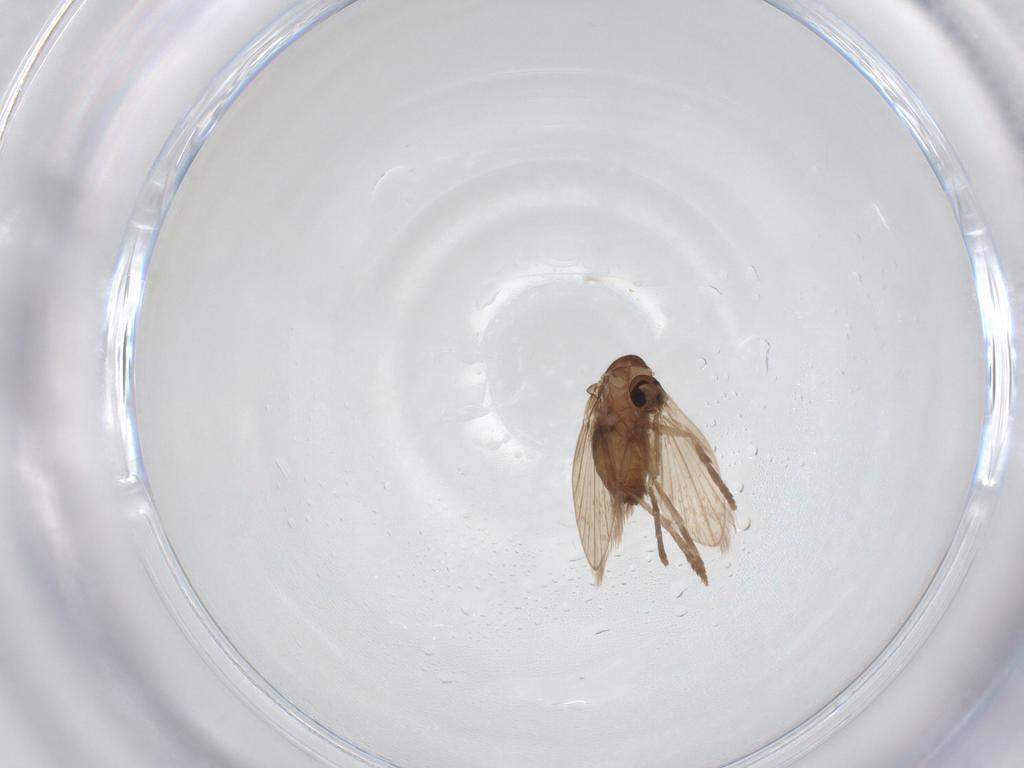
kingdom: Animalia
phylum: Arthropoda
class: Insecta
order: Diptera
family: Psychodidae
